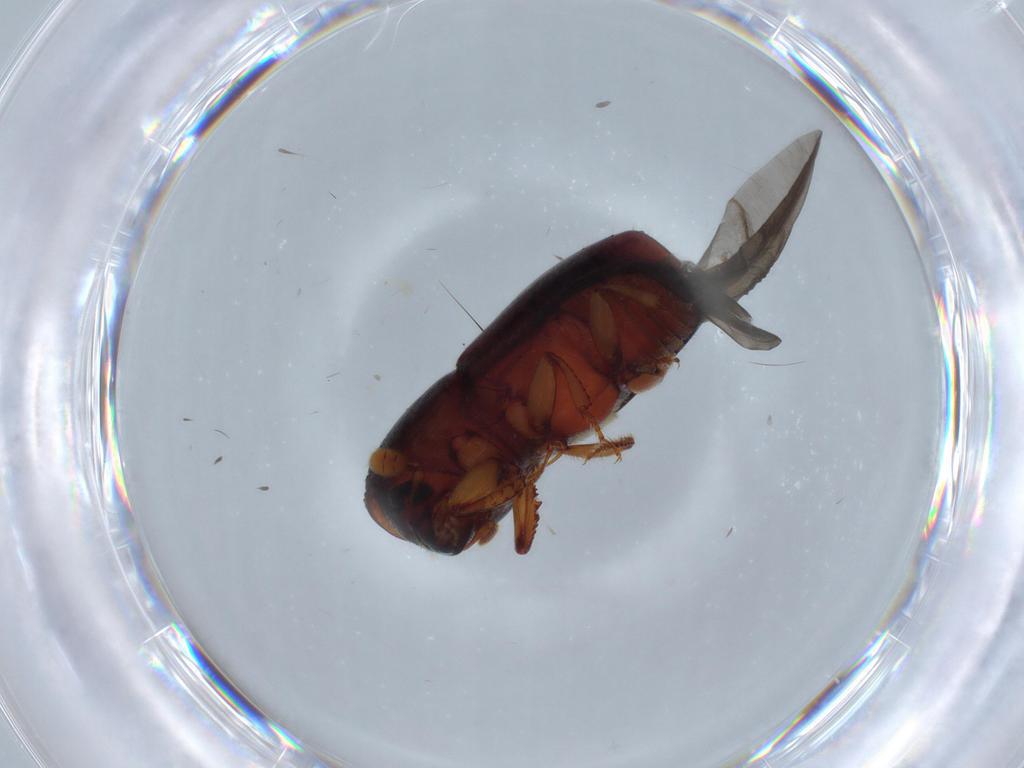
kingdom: Animalia
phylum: Arthropoda
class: Insecta
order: Coleoptera
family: Curculionidae
